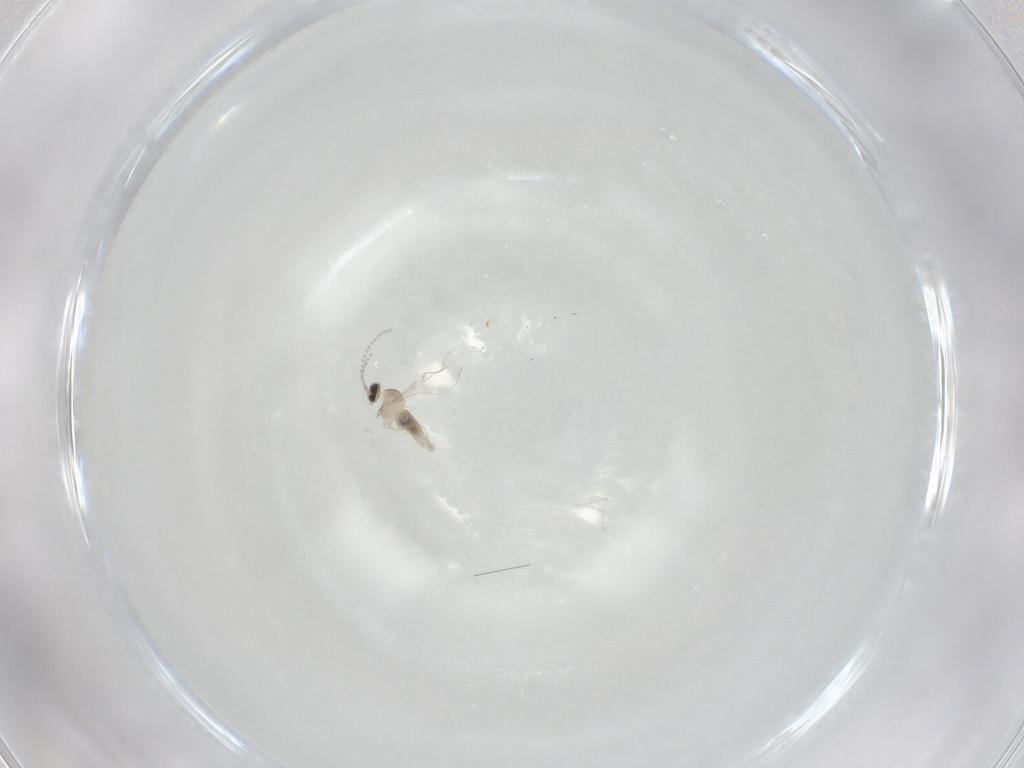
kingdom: Animalia
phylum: Arthropoda
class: Insecta
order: Diptera
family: Cecidomyiidae
